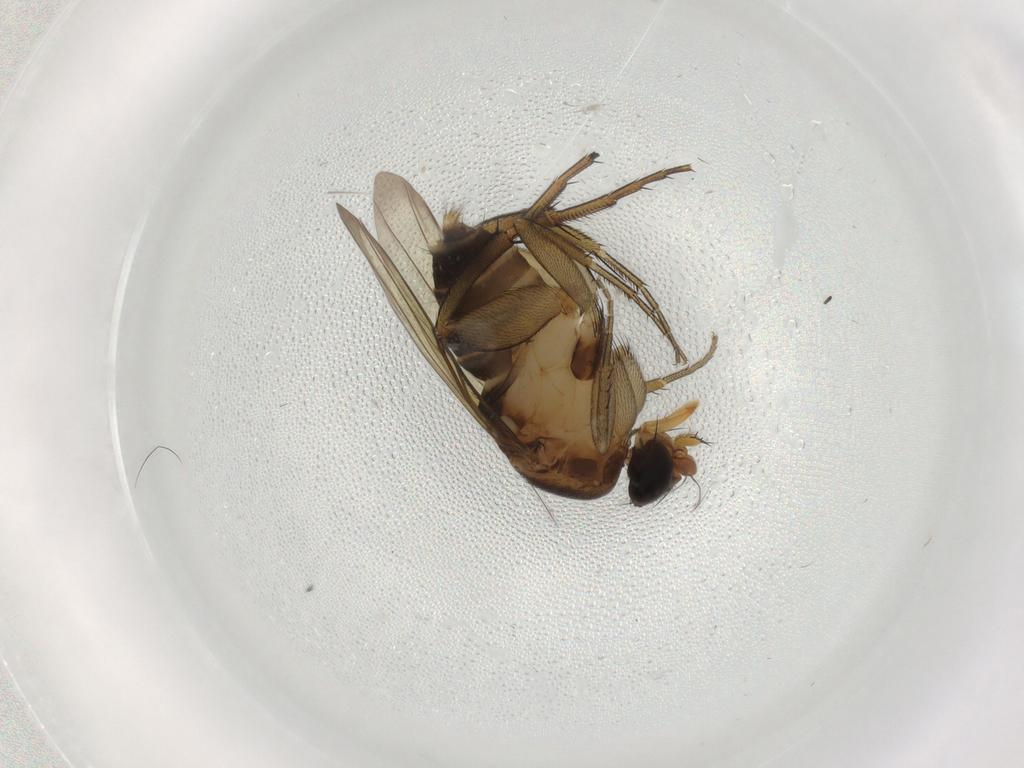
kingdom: Animalia
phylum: Arthropoda
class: Insecta
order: Diptera
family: Phoridae
